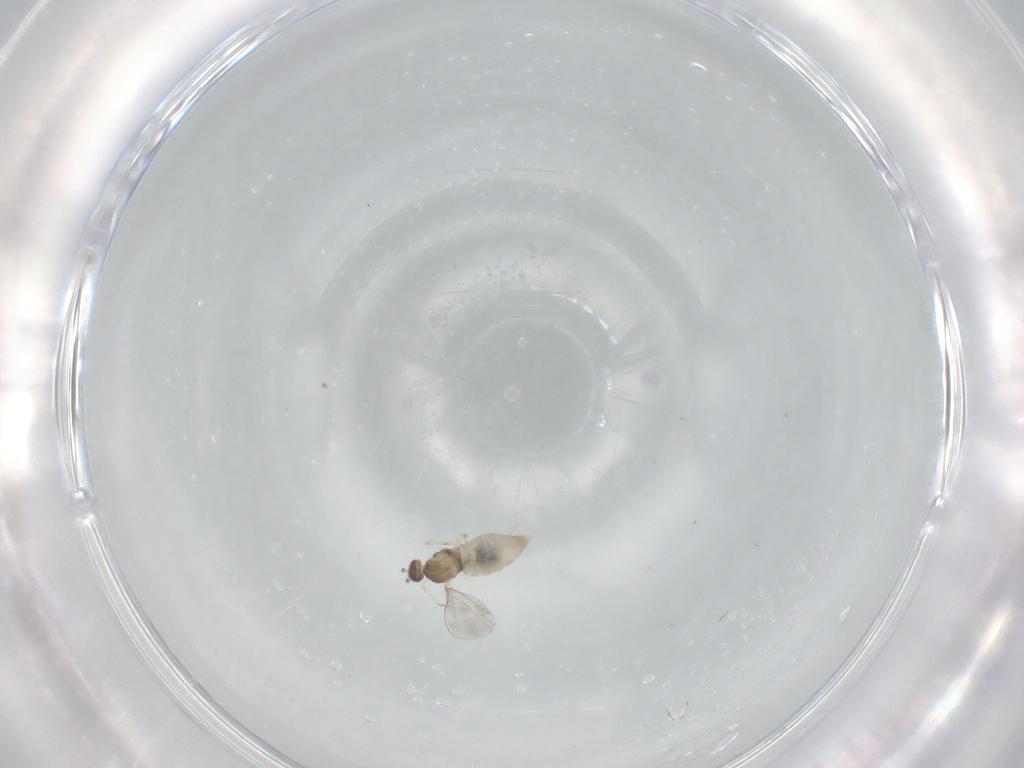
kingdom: Animalia
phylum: Arthropoda
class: Insecta
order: Diptera
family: Cecidomyiidae
